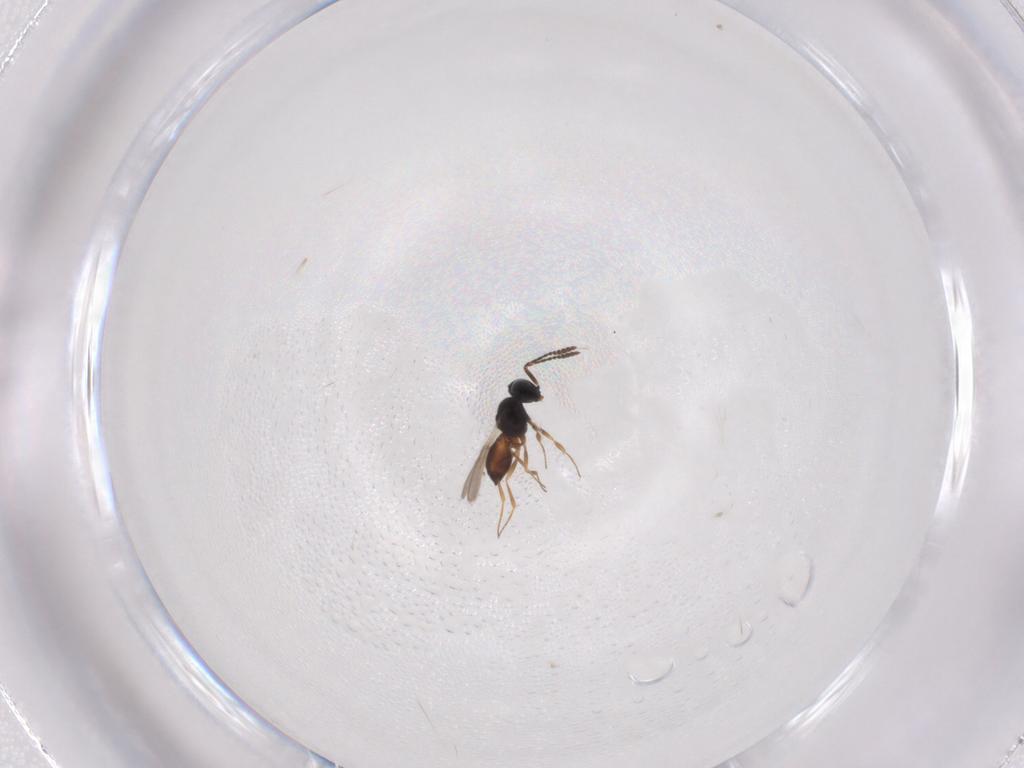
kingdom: Animalia
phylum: Arthropoda
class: Insecta
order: Hymenoptera
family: Scelionidae
